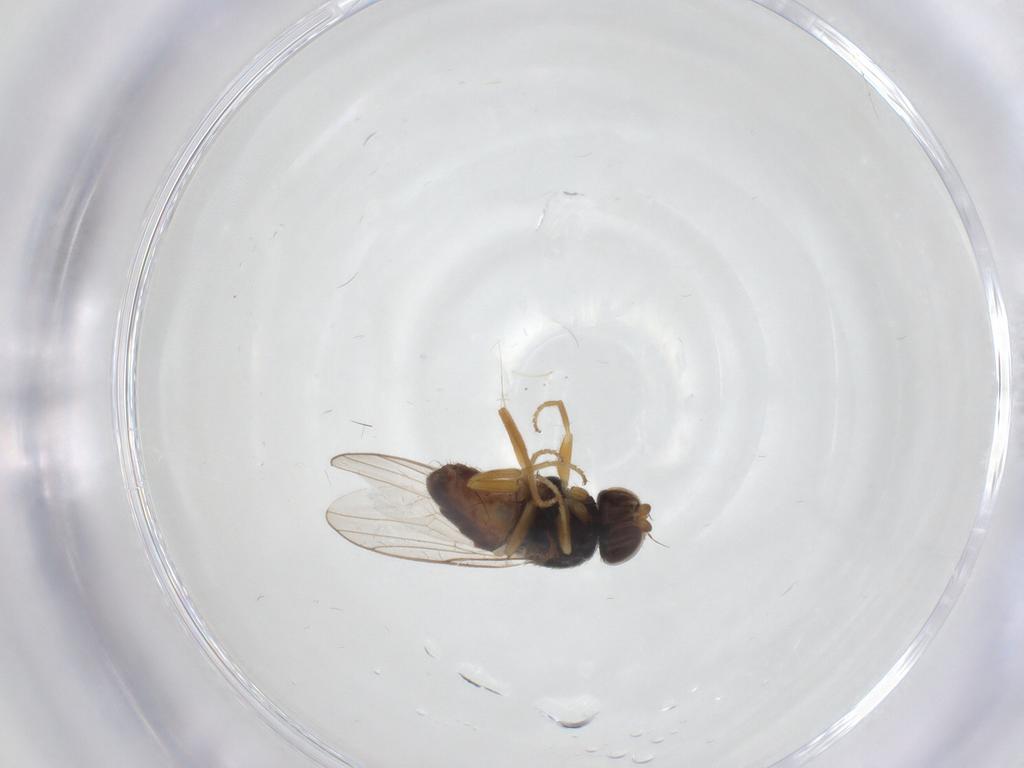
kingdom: Animalia
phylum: Arthropoda
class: Insecta
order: Diptera
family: Chloropidae
